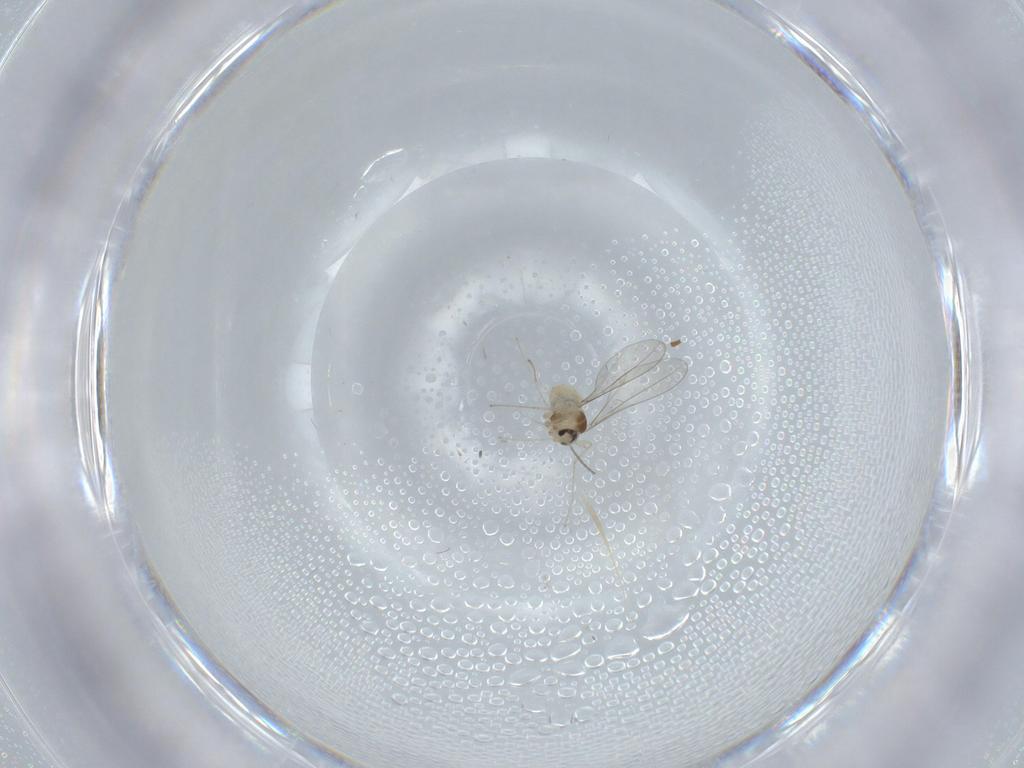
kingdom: Animalia
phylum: Arthropoda
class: Insecta
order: Diptera
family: Cecidomyiidae
